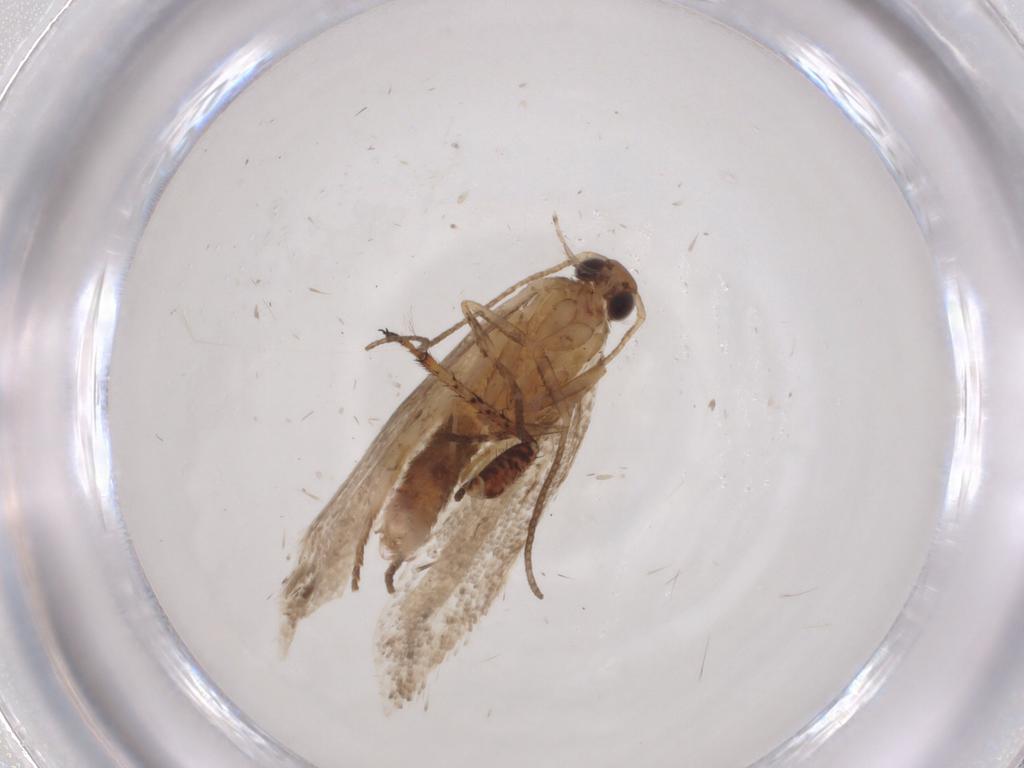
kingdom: Animalia
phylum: Arthropoda
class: Insecta
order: Lepidoptera
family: Gelechiidae
